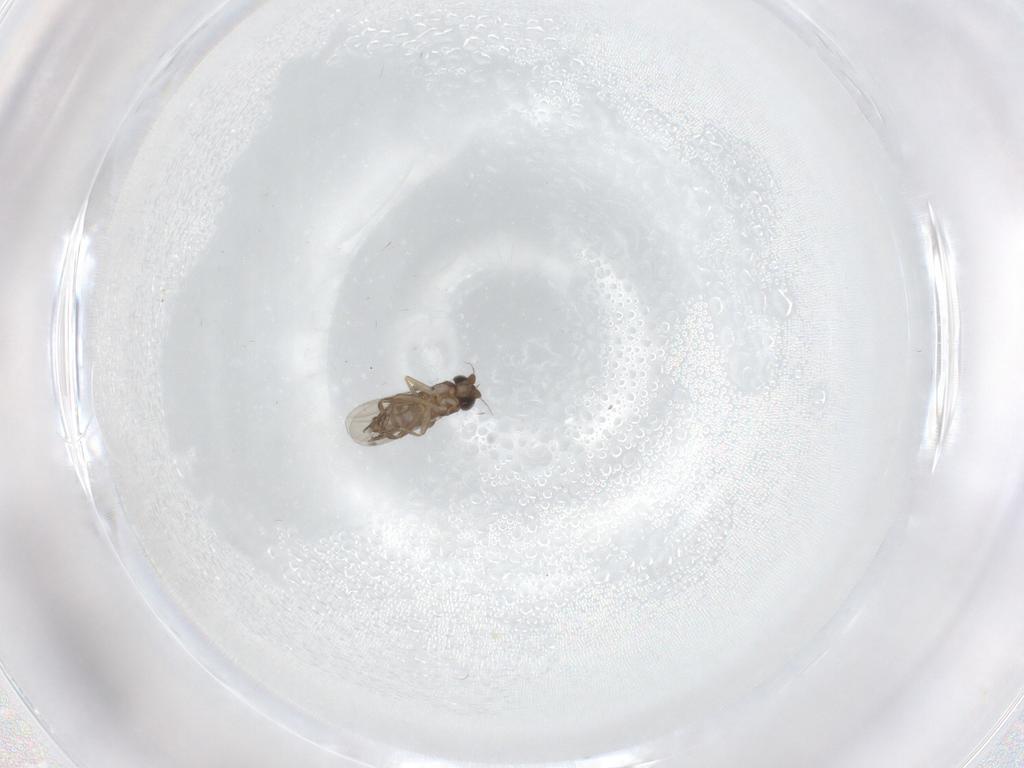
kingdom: Animalia
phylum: Arthropoda
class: Insecta
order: Diptera
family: Phoridae
